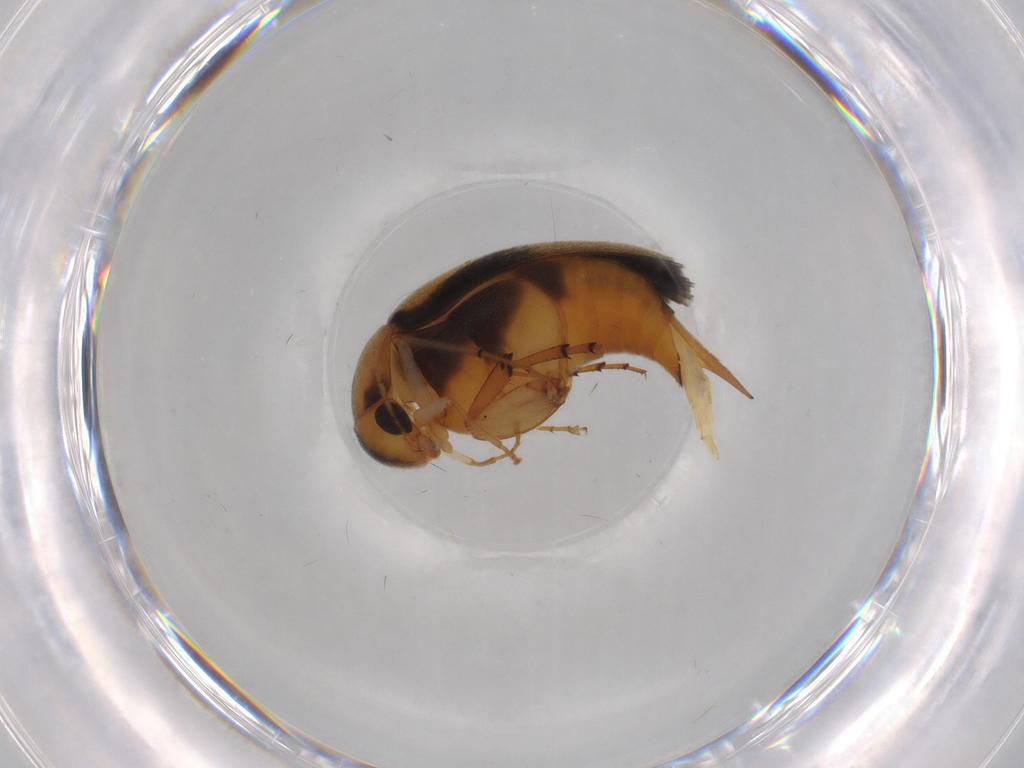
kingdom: Animalia
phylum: Arthropoda
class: Insecta
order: Coleoptera
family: Mordellidae
